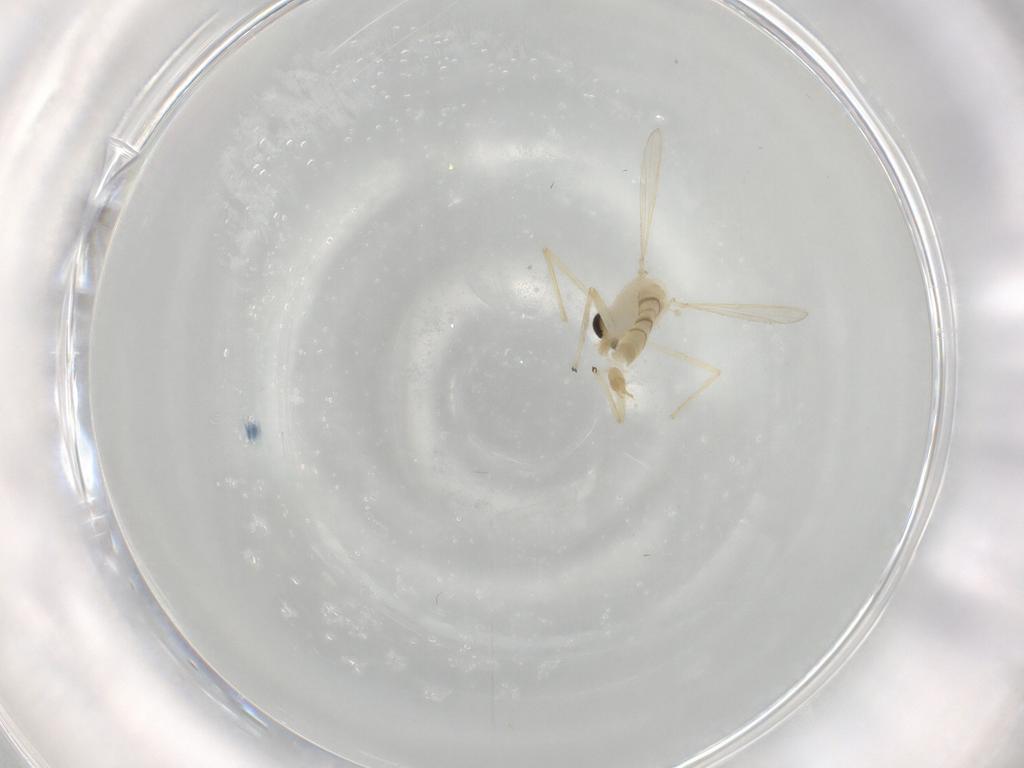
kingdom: Animalia
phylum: Arthropoda
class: Insecta
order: Diptera
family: Chironomidae
